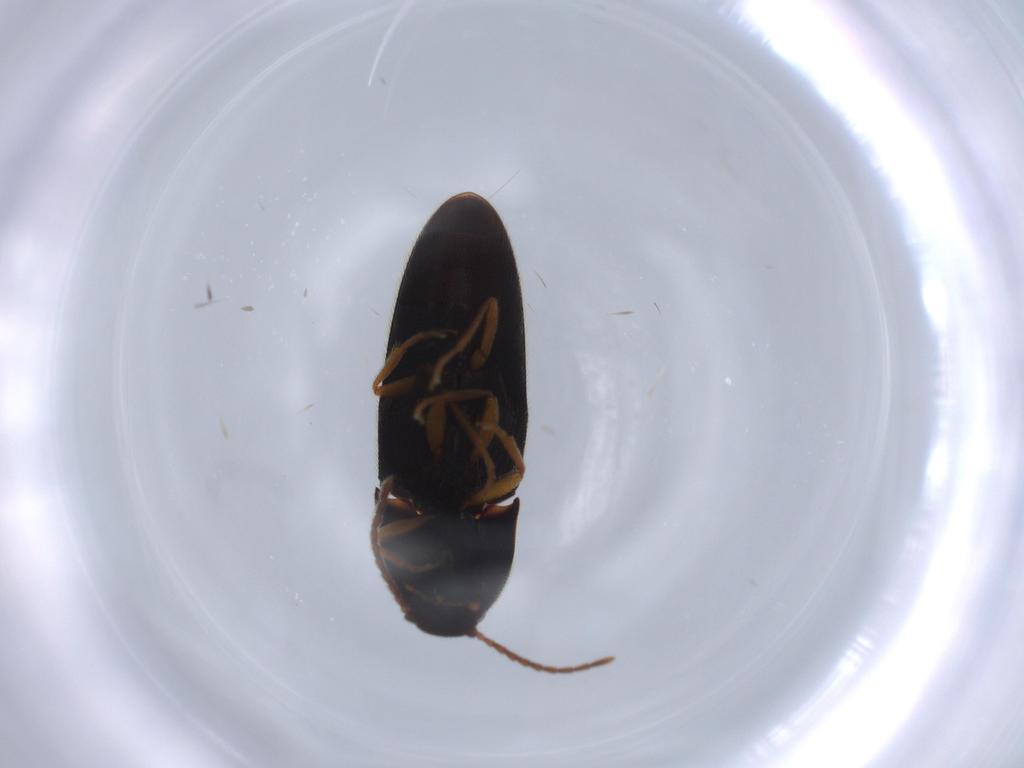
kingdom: Animalia
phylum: Arthropoda
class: Insecta
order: Coleoptera
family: Elateridae
